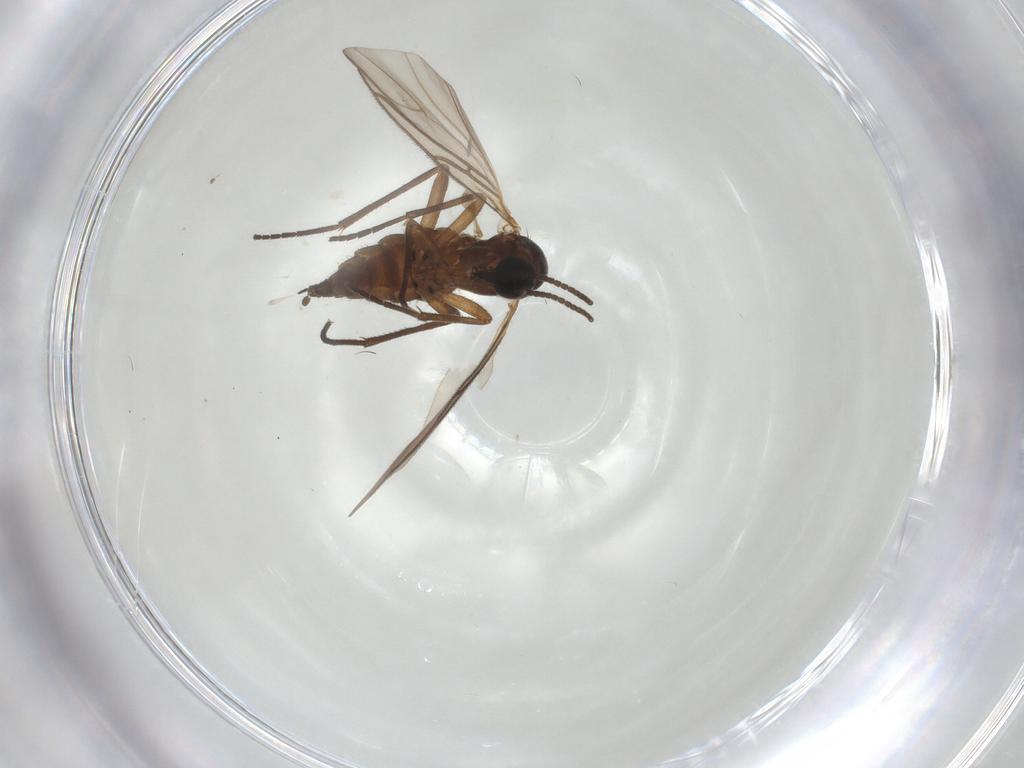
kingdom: Animalia
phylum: Arthropoda
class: Insecta
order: Diptera
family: Sciaridae
